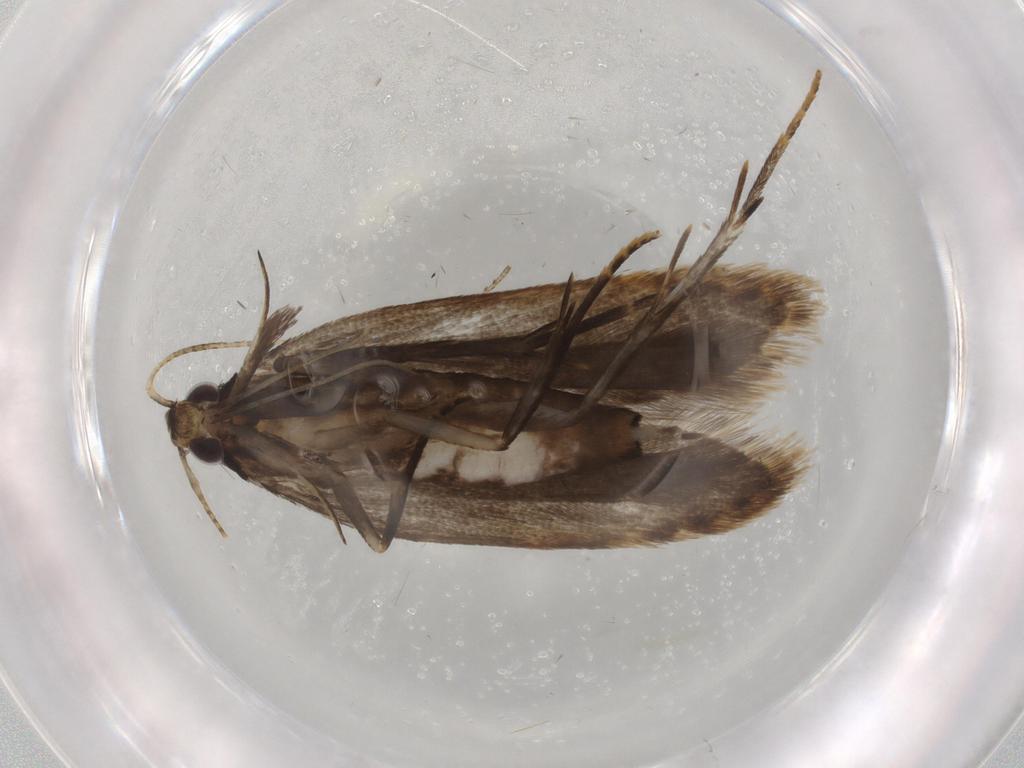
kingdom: Animalia
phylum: Arthropoda
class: Insecta
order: Lepidoptera
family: Gelechiidae
